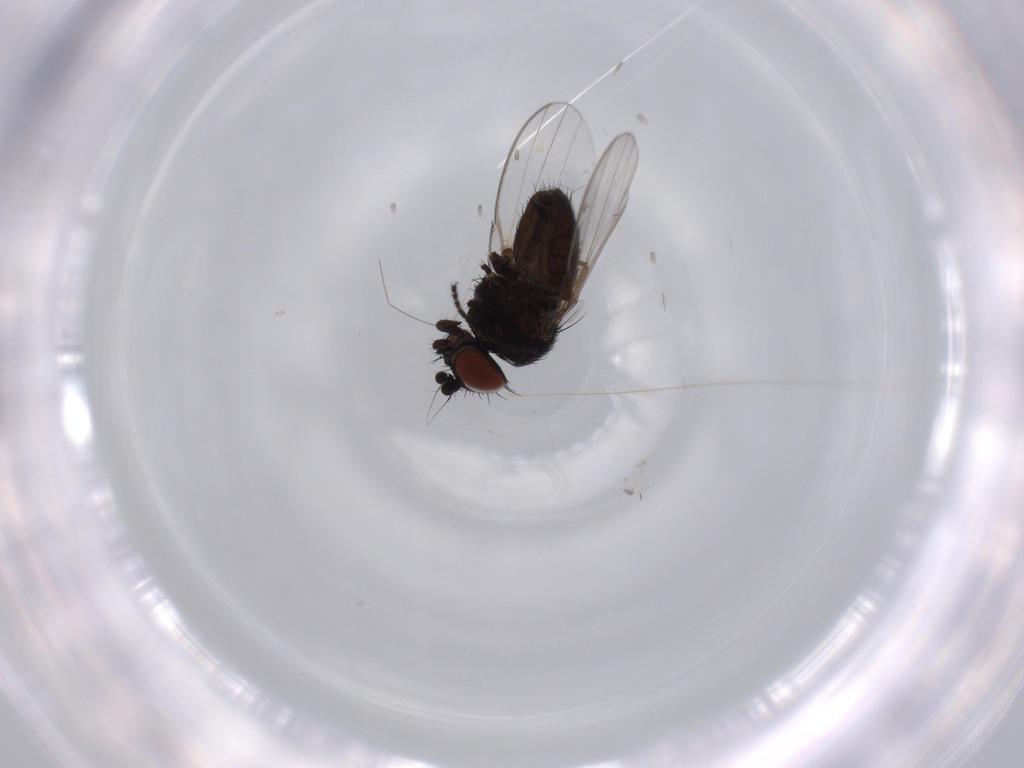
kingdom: Animalia
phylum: Arthropoda
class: Insecta
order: Diptera
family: Sciaridae
